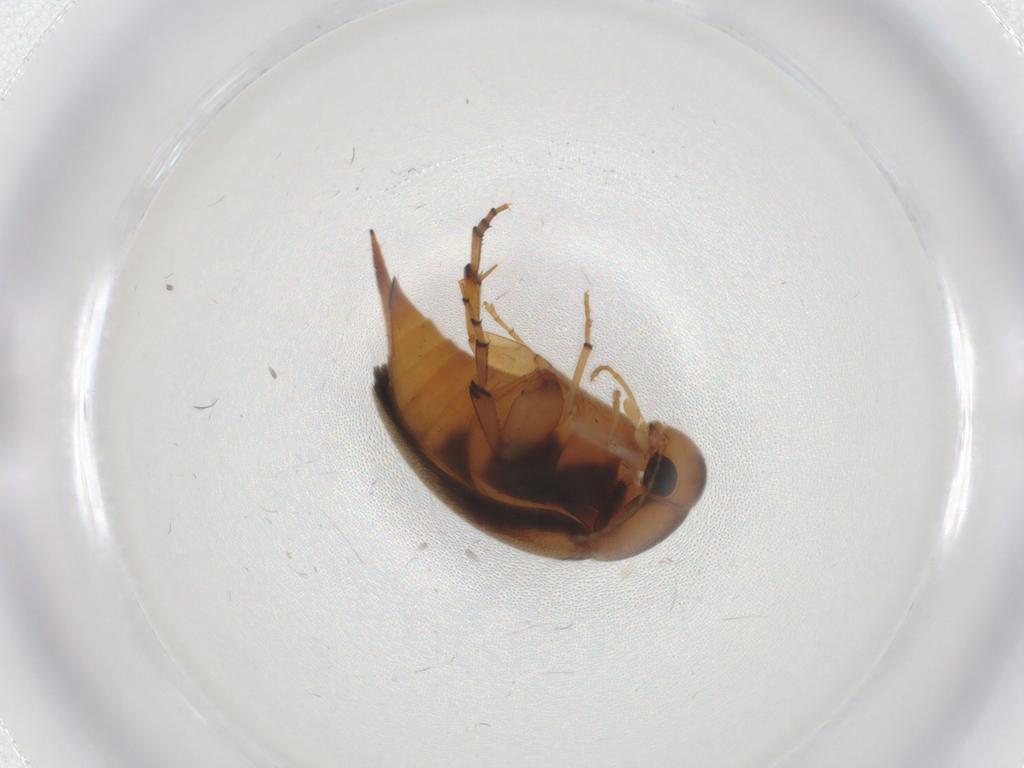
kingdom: Animalia
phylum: Arthropoda
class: Insecta
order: Coleoptera
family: Mordellidae
